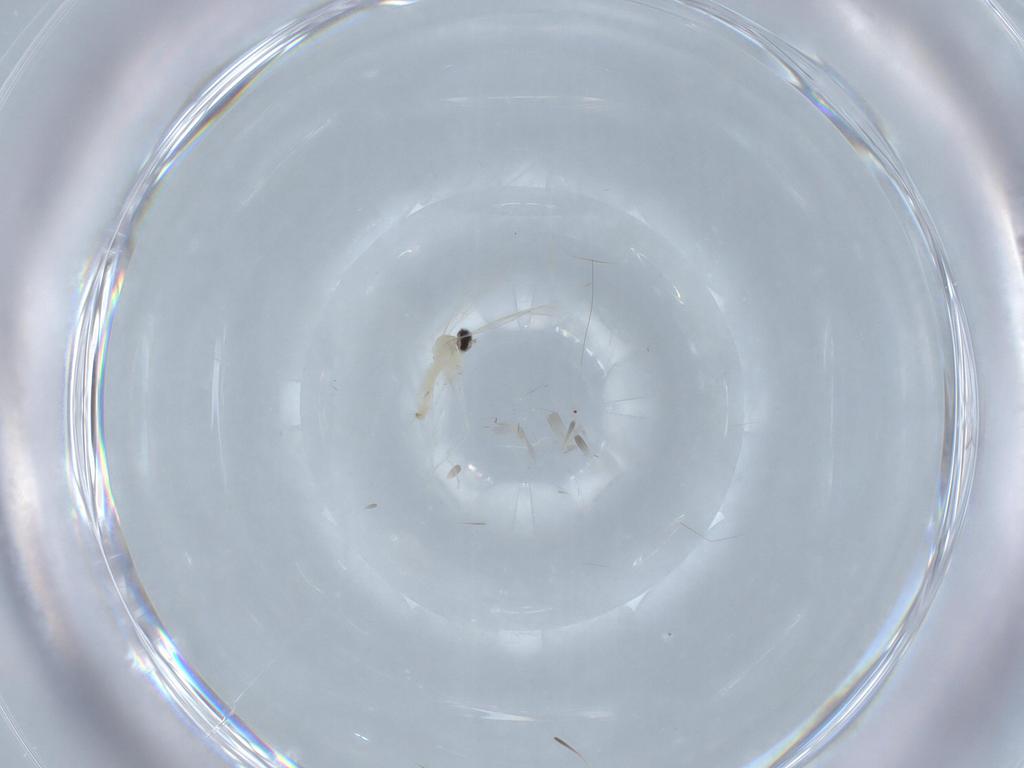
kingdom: Animalia
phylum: Arthropoda
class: Insecta
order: Diptera
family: Cecidomyiidae
